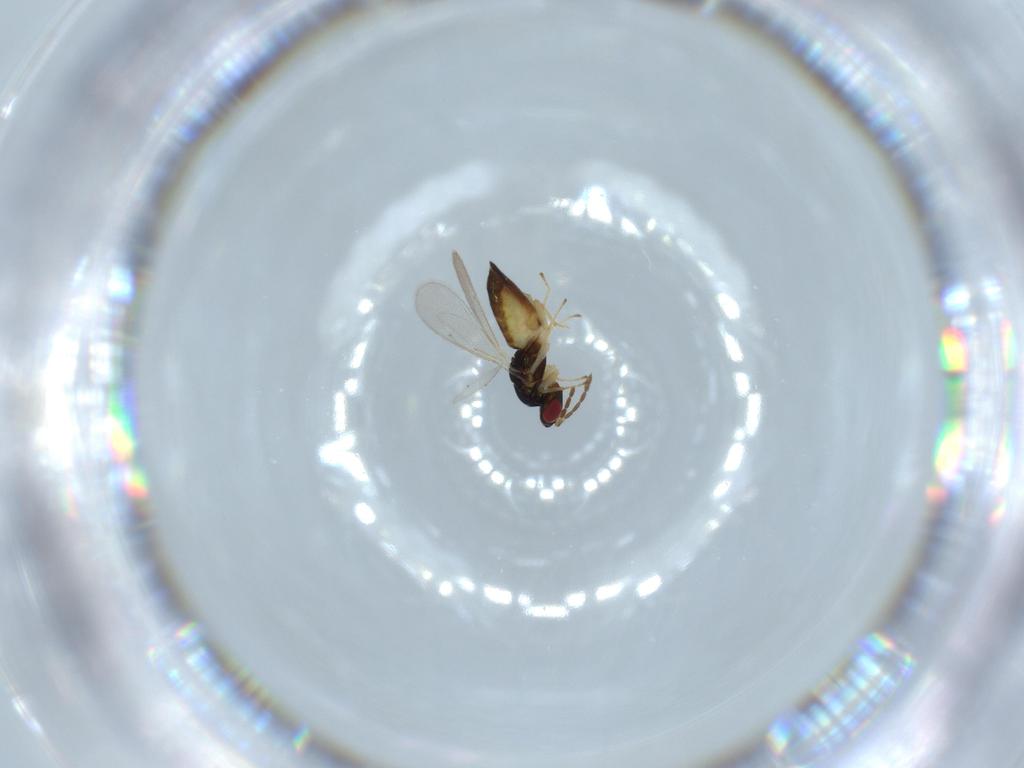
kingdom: Animalia
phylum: Arthropoda
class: Insecta
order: Hymenoptera
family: Eulophidae
